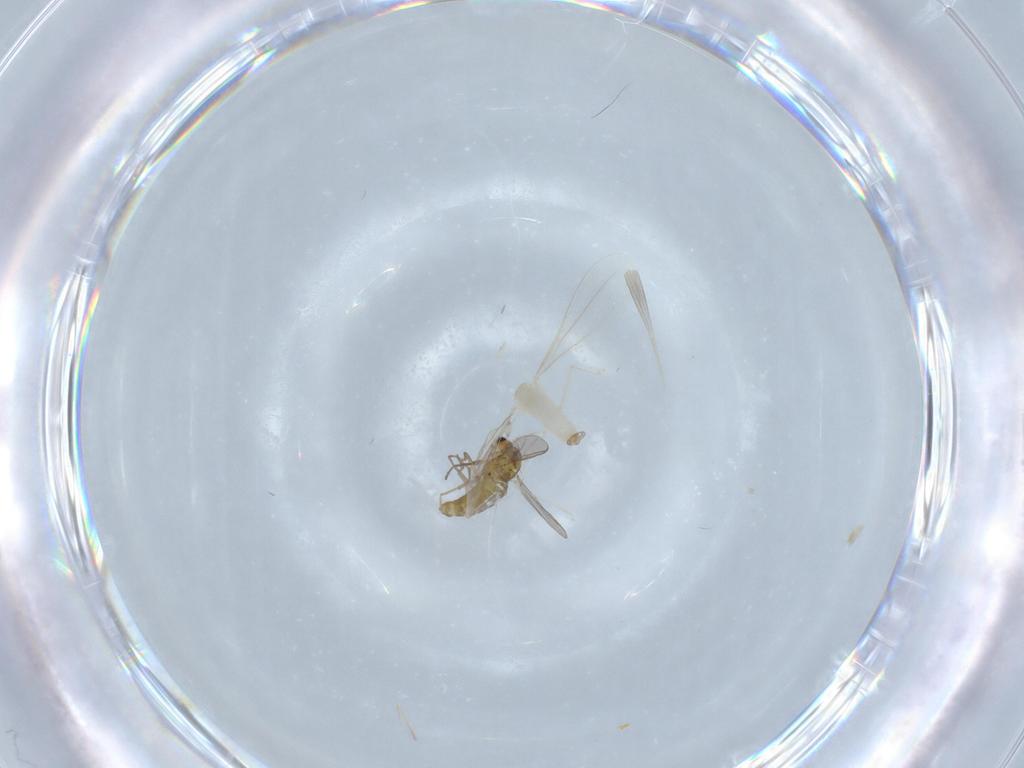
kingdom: Animalia
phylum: Arthropoda
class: Insecta
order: Diptera
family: Cecidomyiidae
